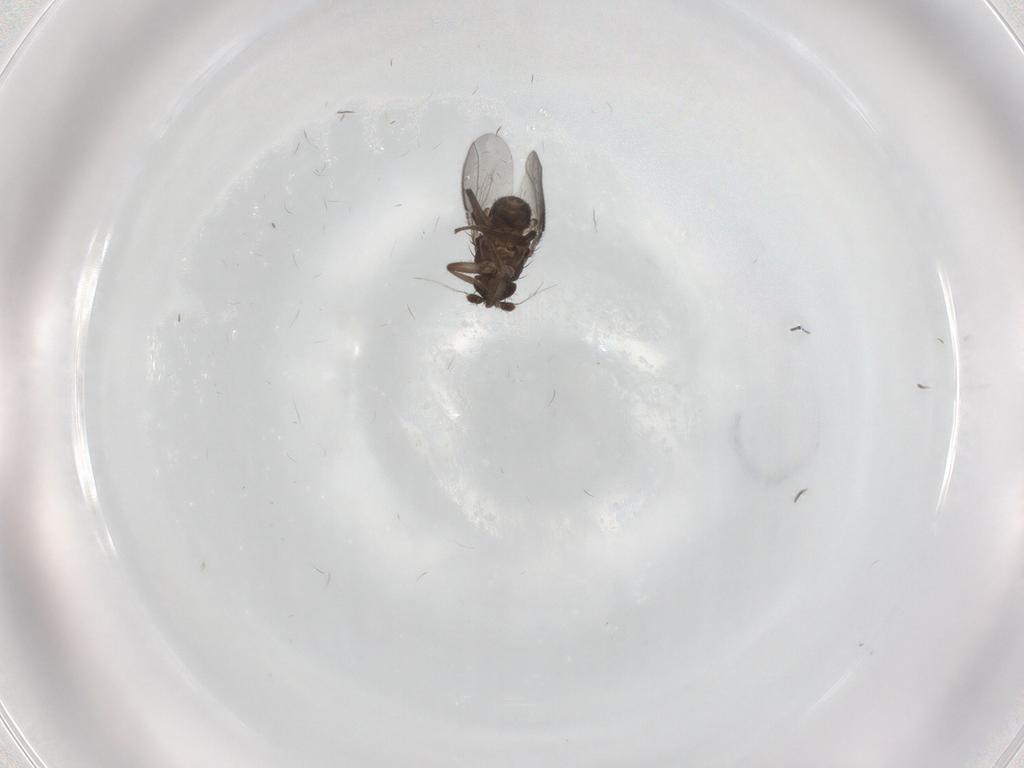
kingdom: Animalia
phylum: Arthropoda
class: Insecta
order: Diptera
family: Sphaeroceridae
